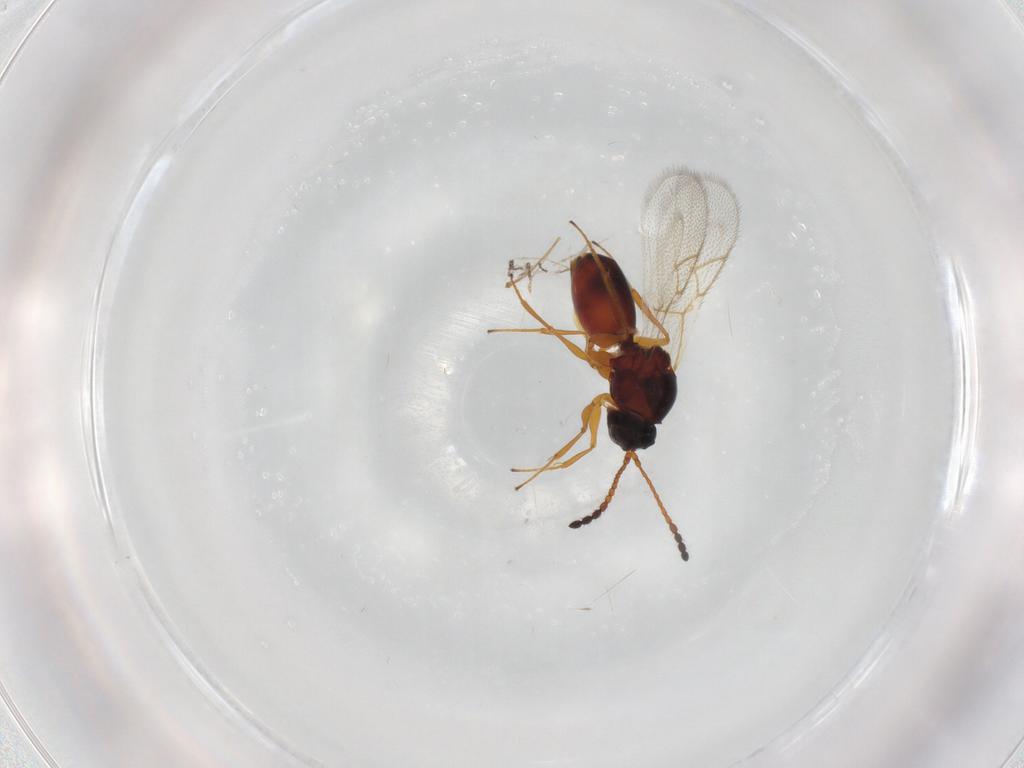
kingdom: Animalia
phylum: Arthropoda
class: Insecta
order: Hymenoptera
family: Figitidae
